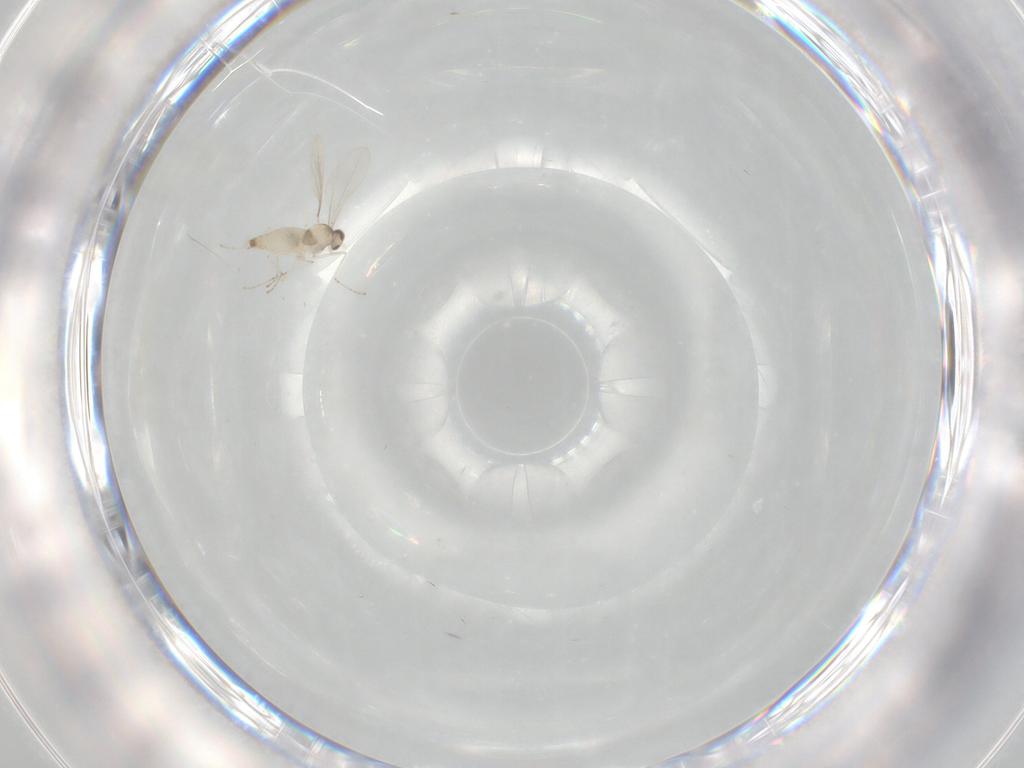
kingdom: Animalia
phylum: Arthropoda
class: Insecta
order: Diptera
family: Cecidomyiidae
